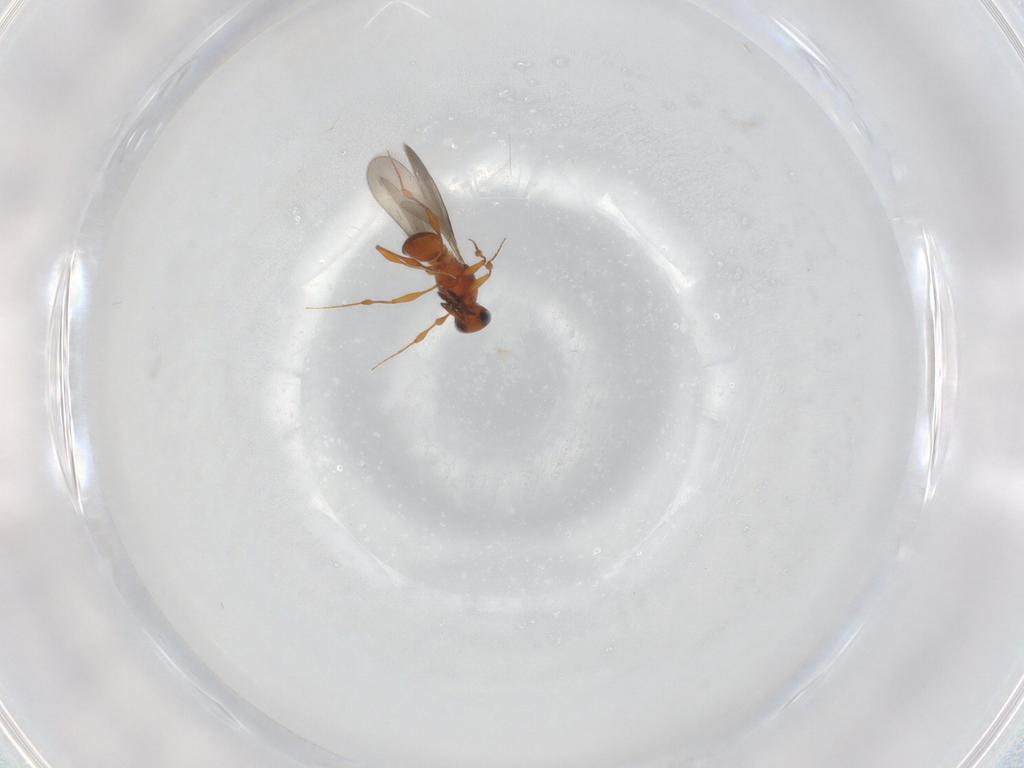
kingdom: Animalia
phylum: Arthropoda
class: Insecta
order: Hymenoptera
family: Platygastridae
